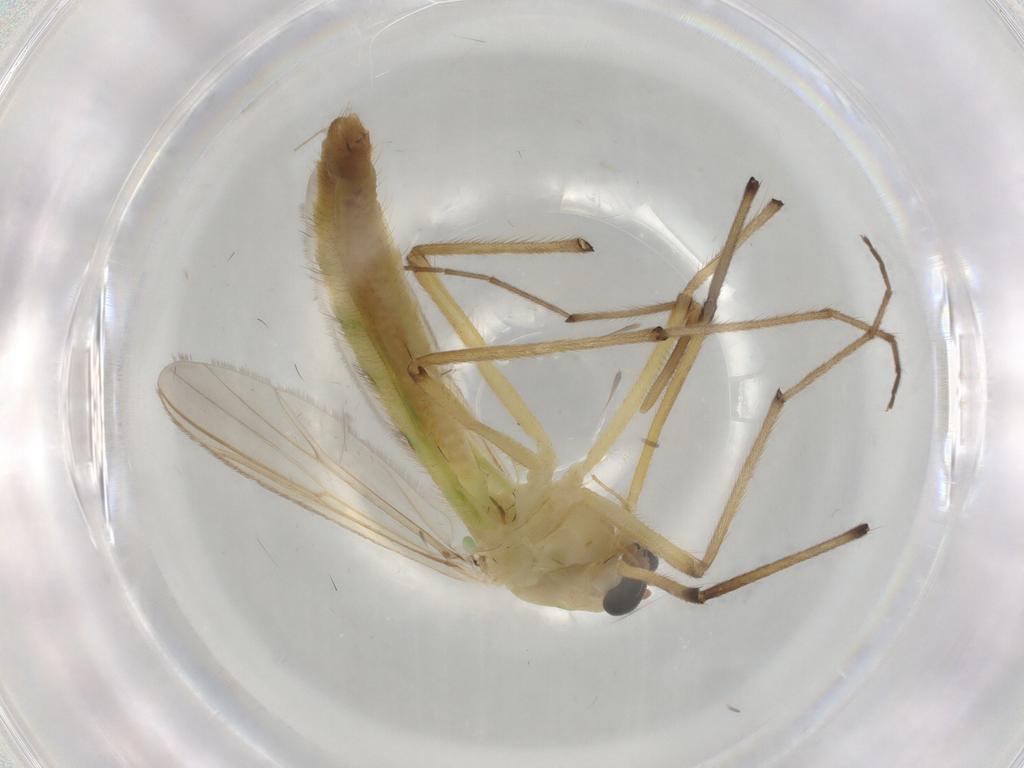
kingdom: Animalia
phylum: Arthropoda
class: Insecta
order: Diptera
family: Chironomidae
